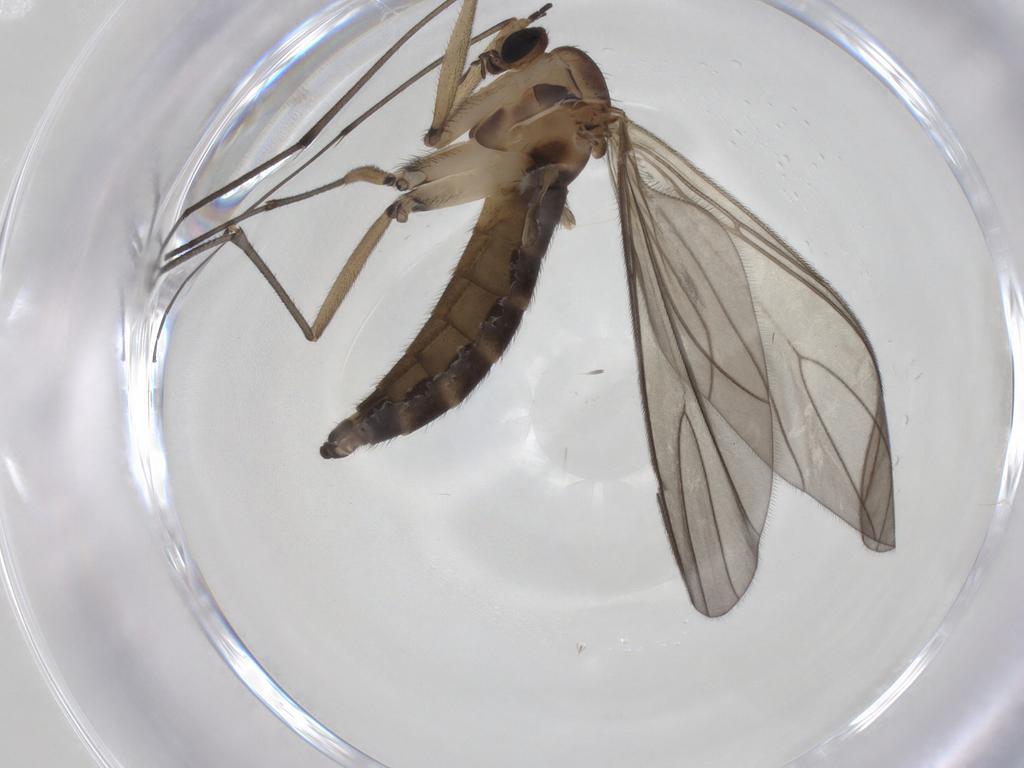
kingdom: Animalia
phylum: Arthropoda
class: Insecta
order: Diptera
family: Sciaridae
